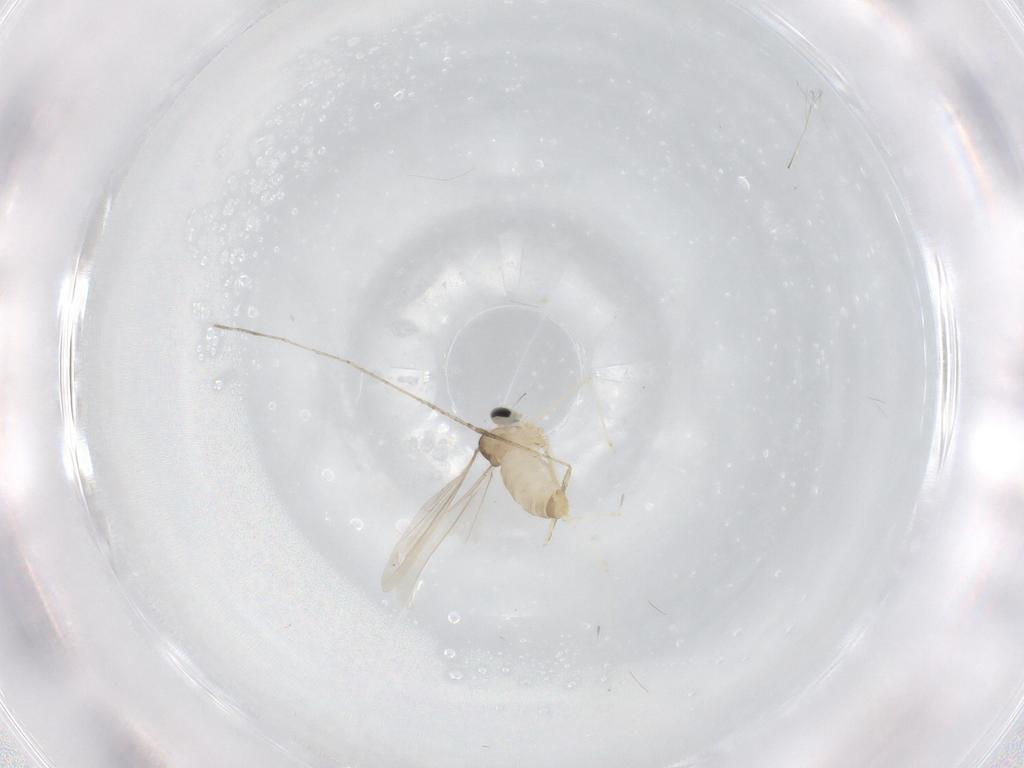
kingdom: Animalia
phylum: Arthropoda
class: Insecta
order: Diptera
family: Cecidomyiidae
